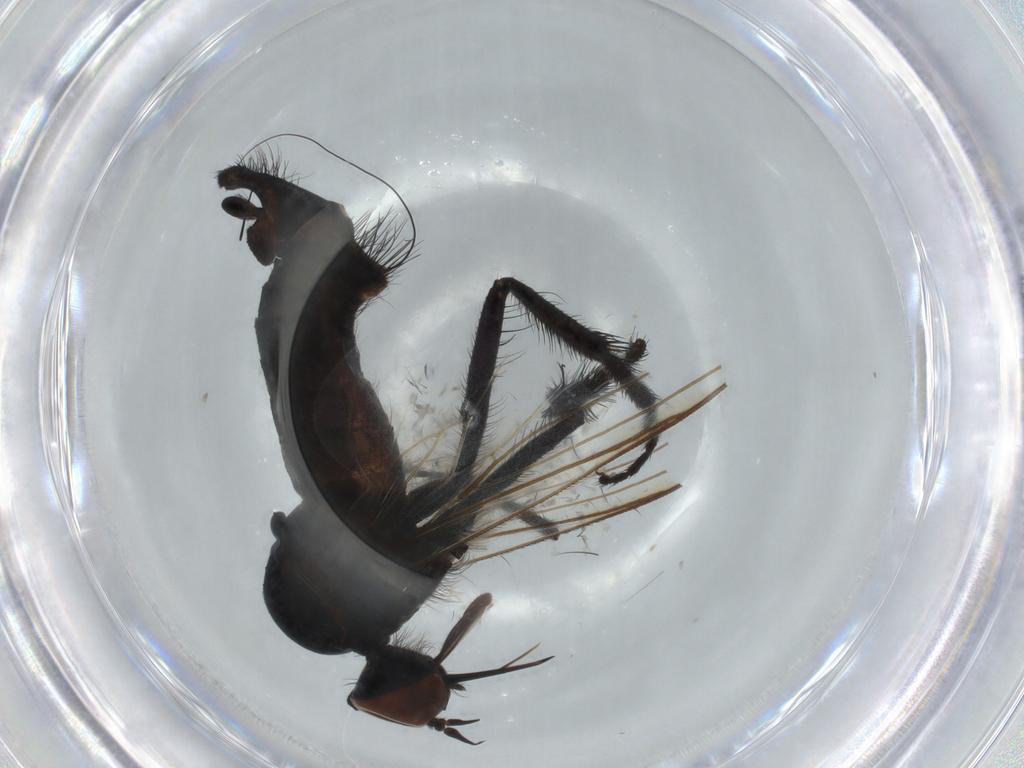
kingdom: Animalia
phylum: Arthropoda
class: Insecta
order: Diptera
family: Lonchaeidae
